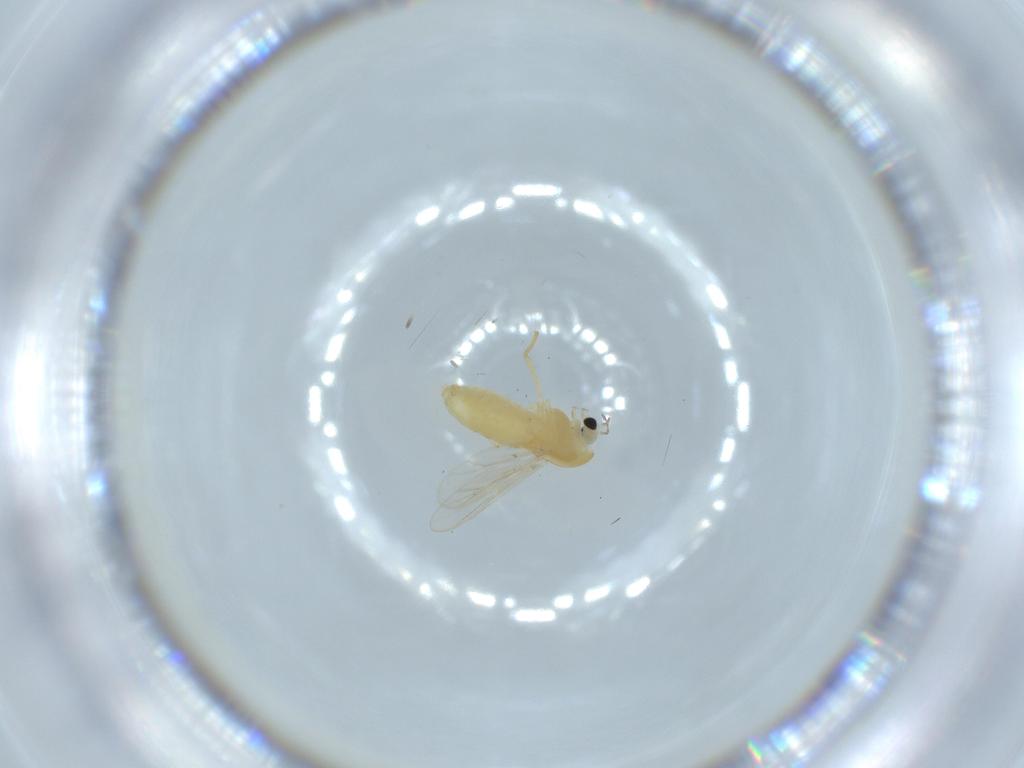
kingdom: Animalia
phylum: Arthropoda
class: Insecta
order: Diptera
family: Chironomidae
